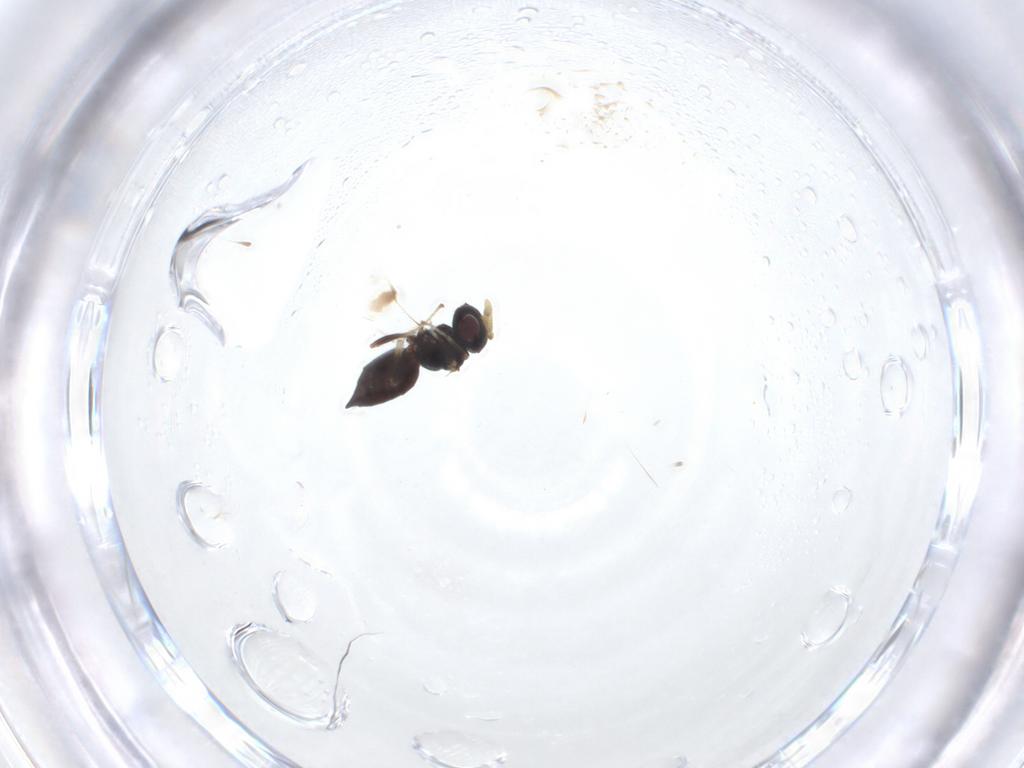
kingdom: Animalia
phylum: Arthropoda
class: Insecta
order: Hymenoptera
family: Pteromalidae
